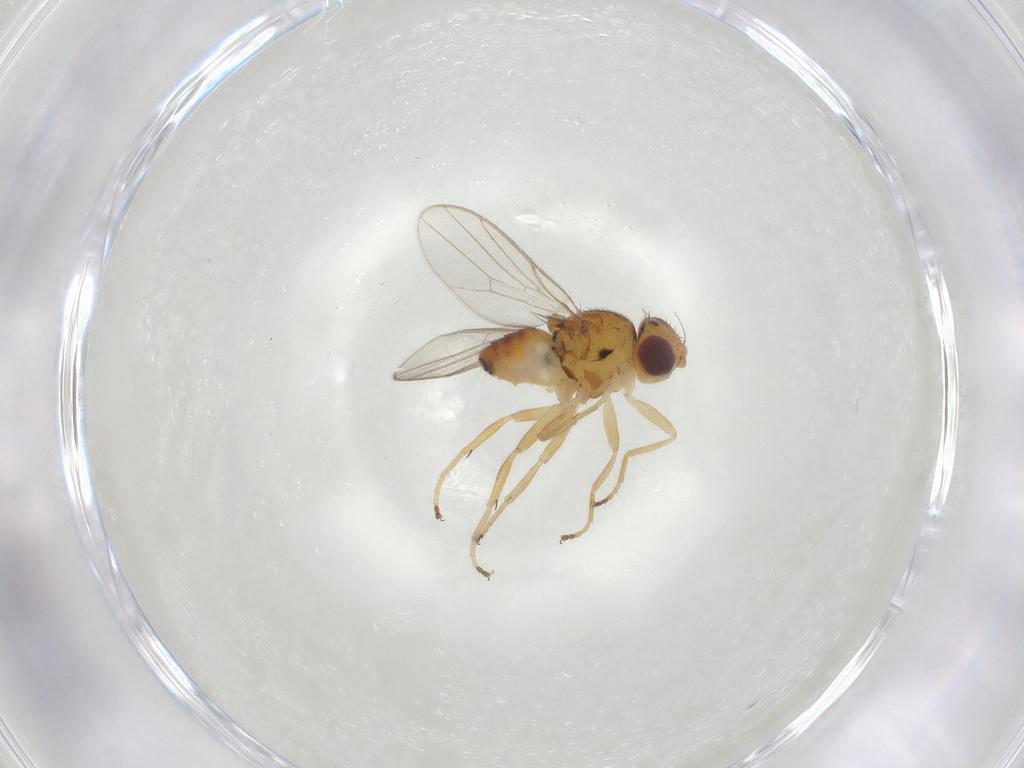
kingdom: Animalia
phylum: Arthropoda
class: Insecta
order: Diptera
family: Chloropidae
